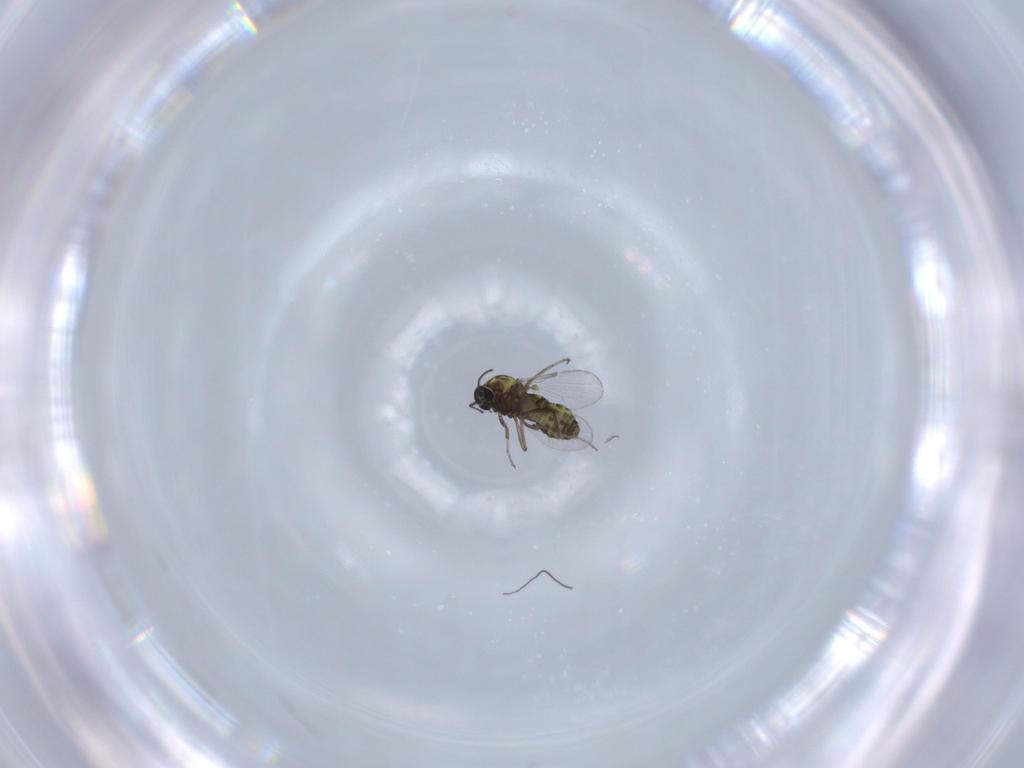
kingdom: Animalia
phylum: Arthropoda
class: Insecta
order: Diptera
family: Ceratopogonidae
